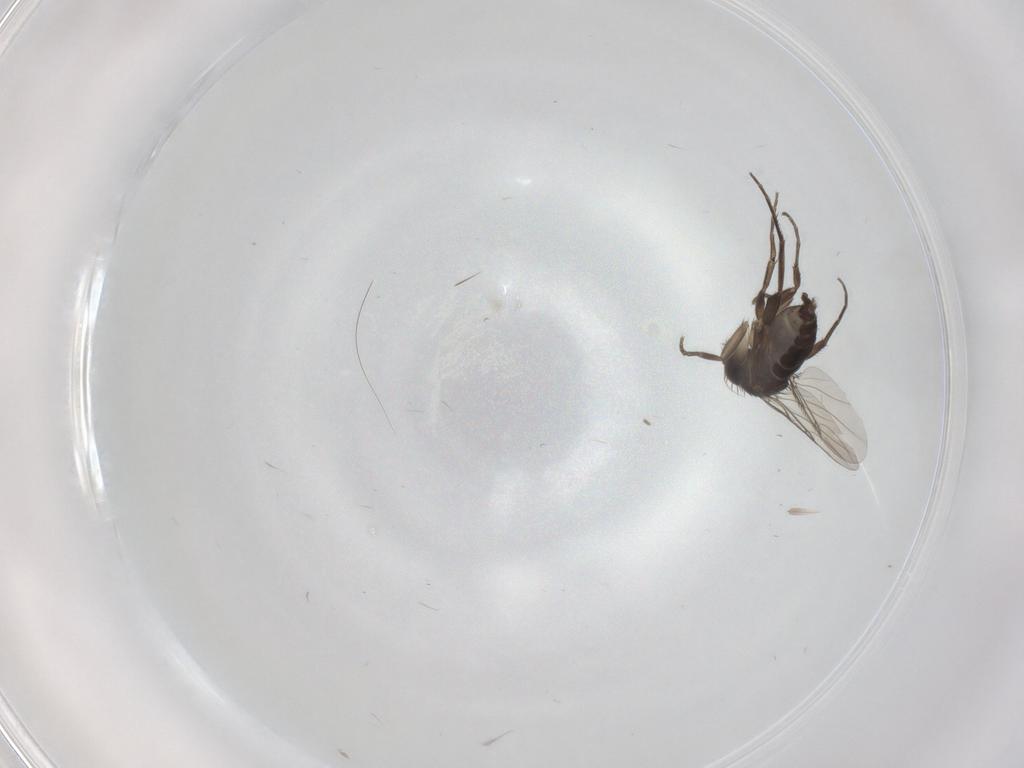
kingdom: Animalia
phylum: Arthropoda
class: Insecta
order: Diptera
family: Phoridae
